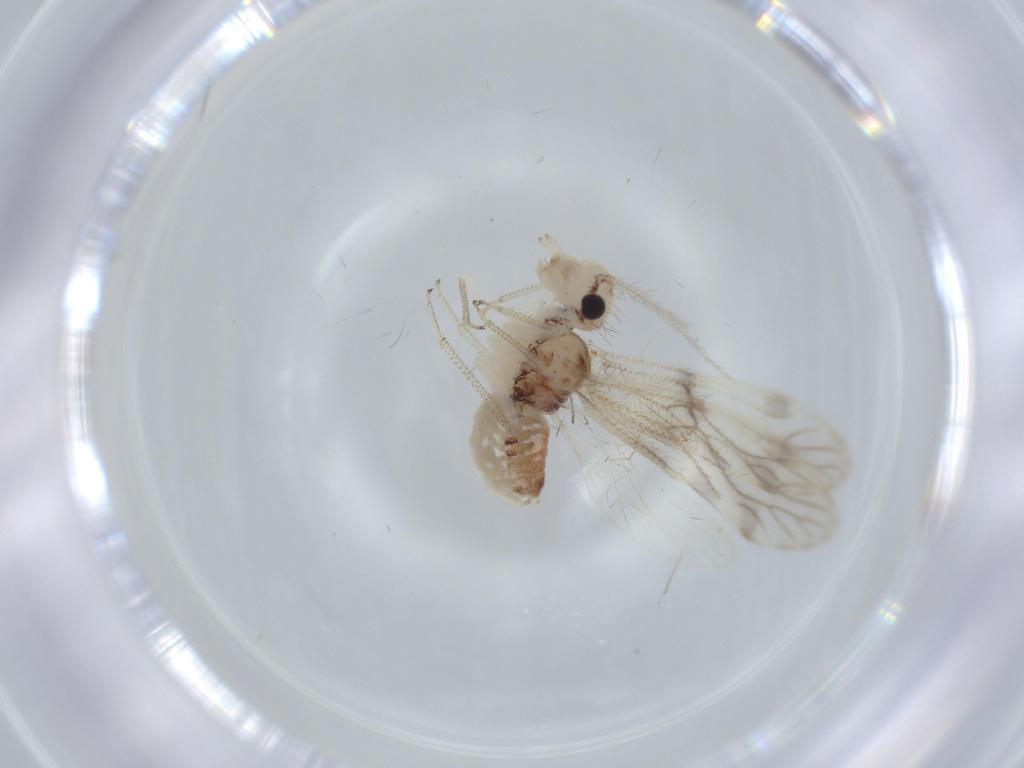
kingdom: Animalia
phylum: Arthropoda
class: Insecta
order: Psocodea
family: Pseudocaeciliidae
